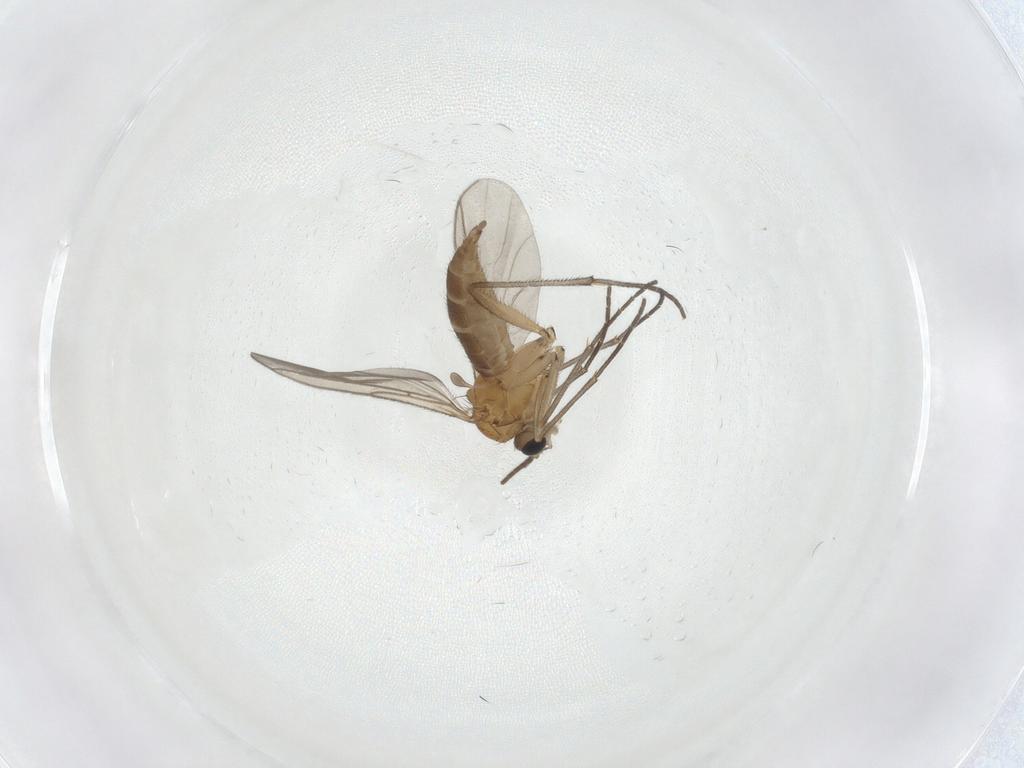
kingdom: Animalia
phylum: Arthropoda
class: Insecta
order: Diptera
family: Sciaridae
